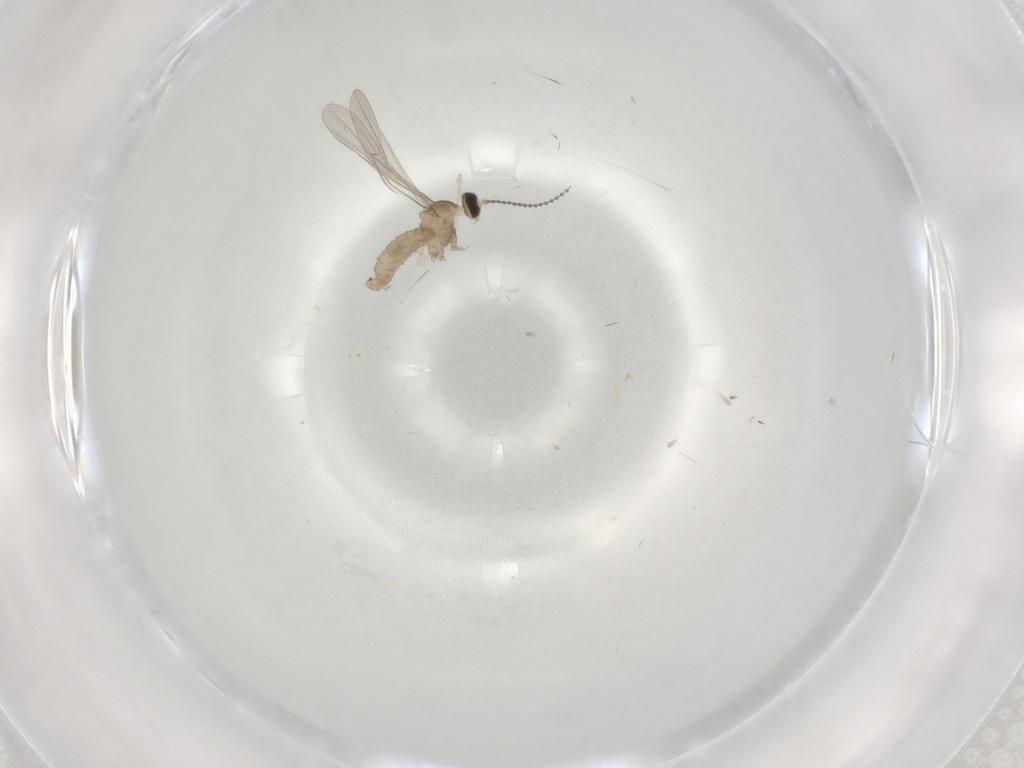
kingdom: Animalia
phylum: Arthropoda
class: Insecta
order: Diptera
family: Cecidomyiidae
